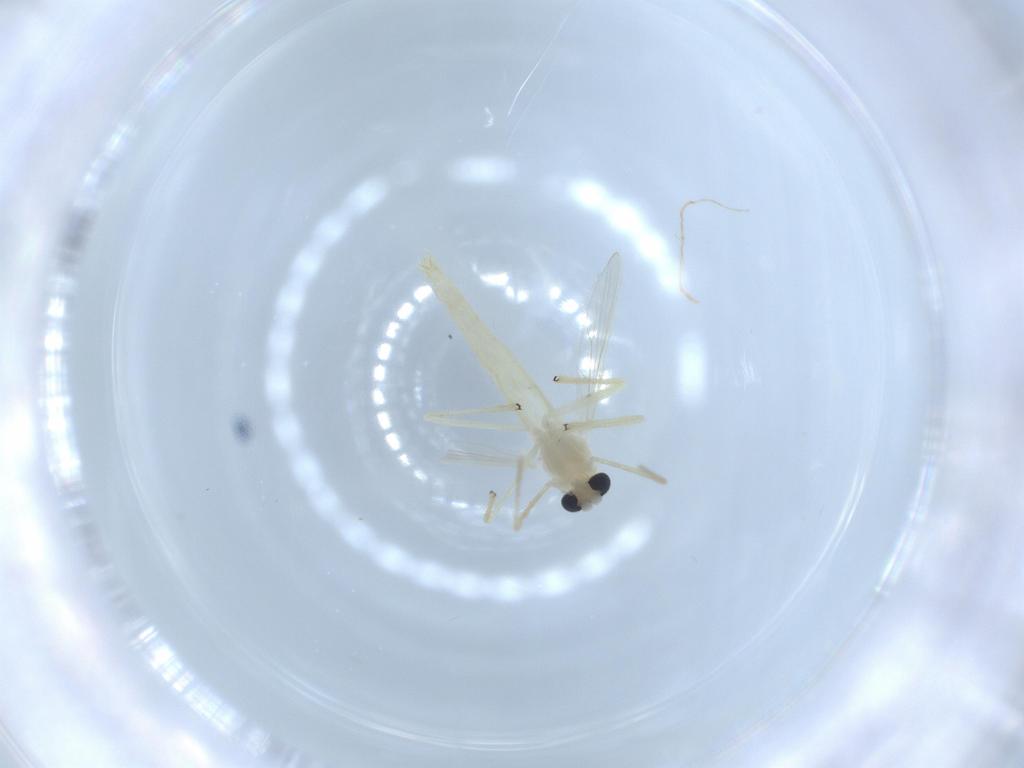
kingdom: Animalia
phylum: Arthropoda
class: Insecta
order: Diptera
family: Chironomidae
